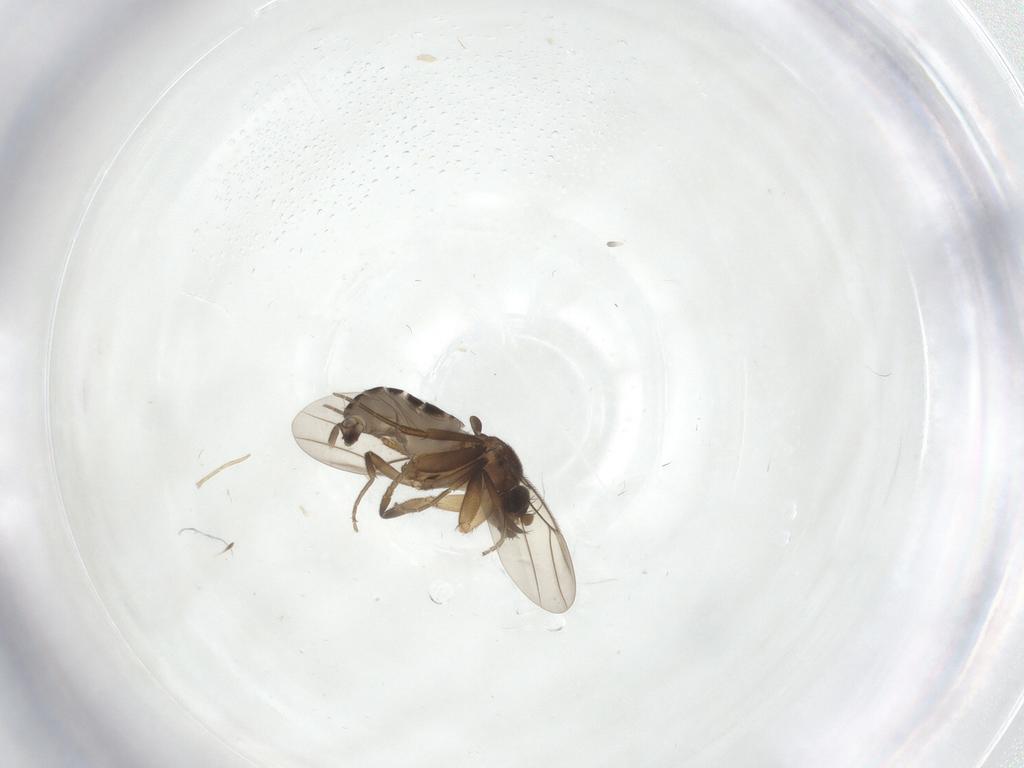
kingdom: Animalia
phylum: Arthropoda
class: Insecta
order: Diptera
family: Phoridae
